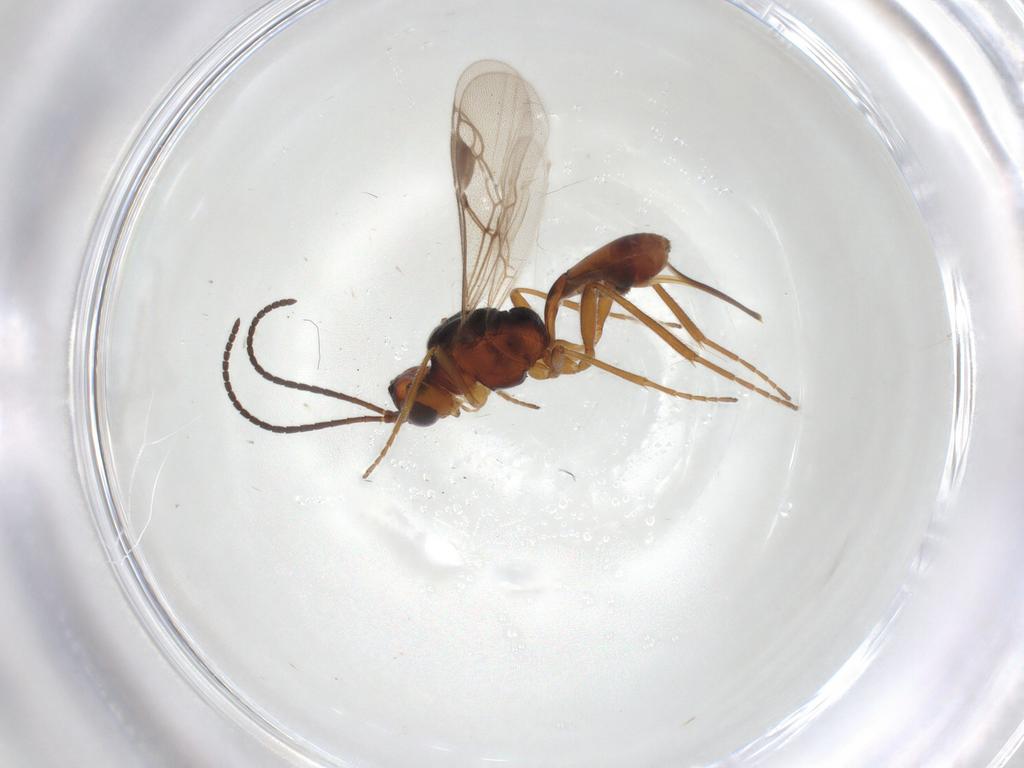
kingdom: Animalia
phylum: Arthropoda
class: Insecta
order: Hymenoptera
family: Braconidae
